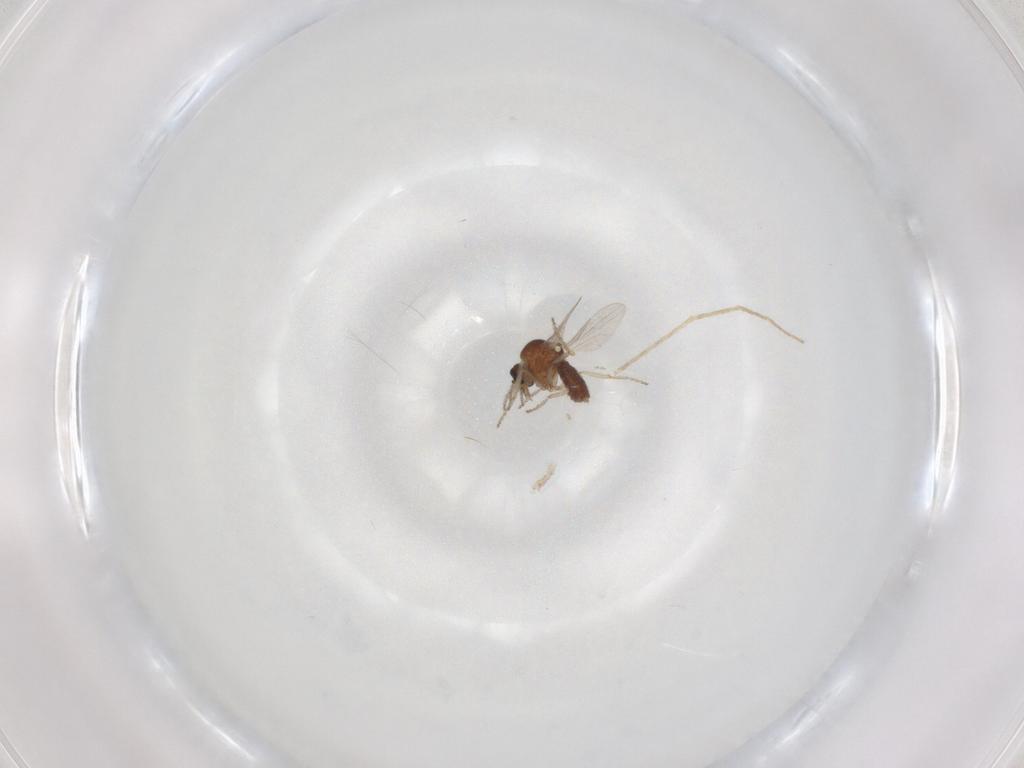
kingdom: Animalia
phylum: Arthropoda
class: Insecta
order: Diptera
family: Ceratopogonidae
